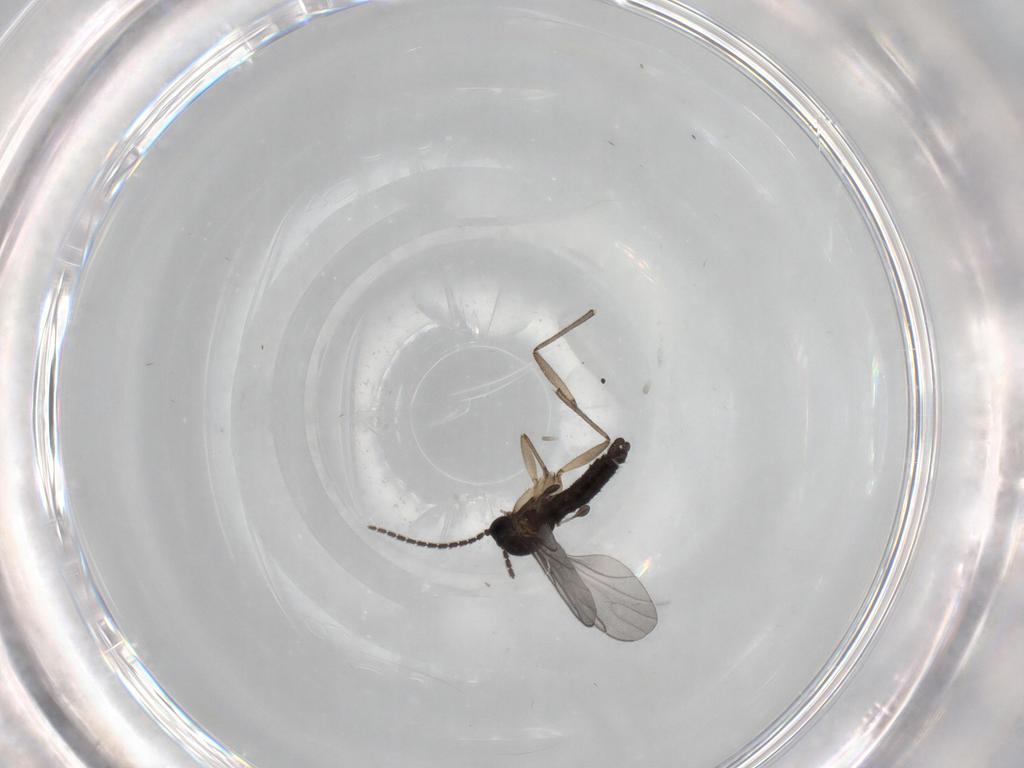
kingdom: Animalia
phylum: Arthropoda
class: Insecta
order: Diptera
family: Sciaridae
